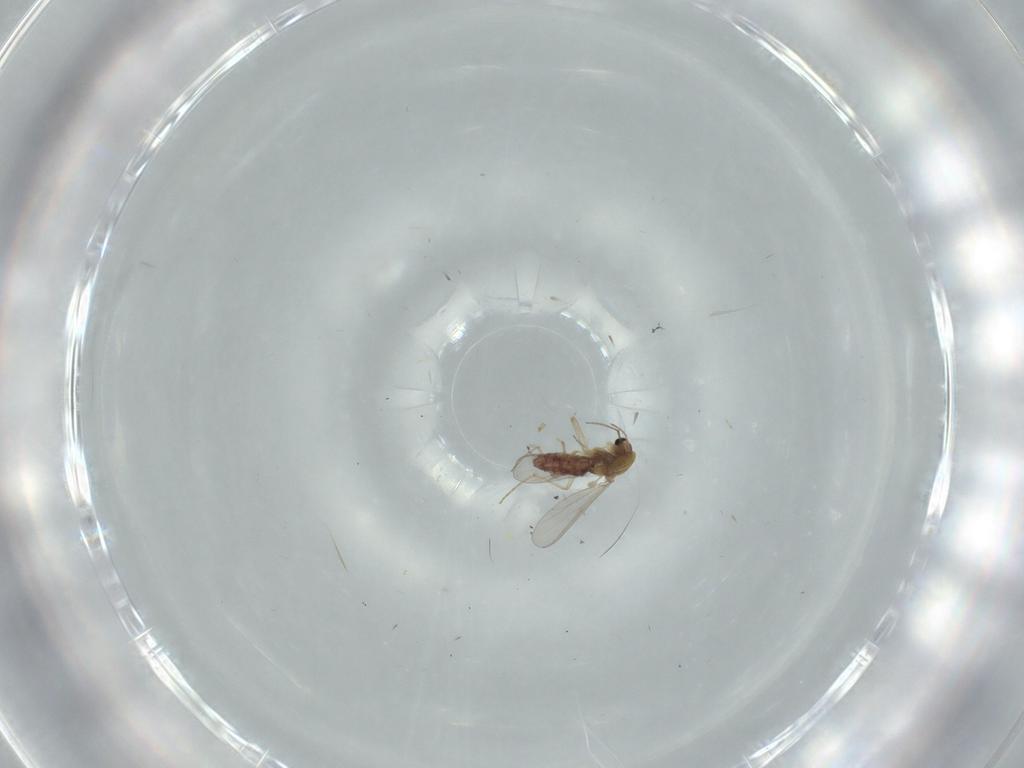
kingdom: Animalia
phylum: Arthropoda
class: Insecta
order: Diptera
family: Chironomidae
